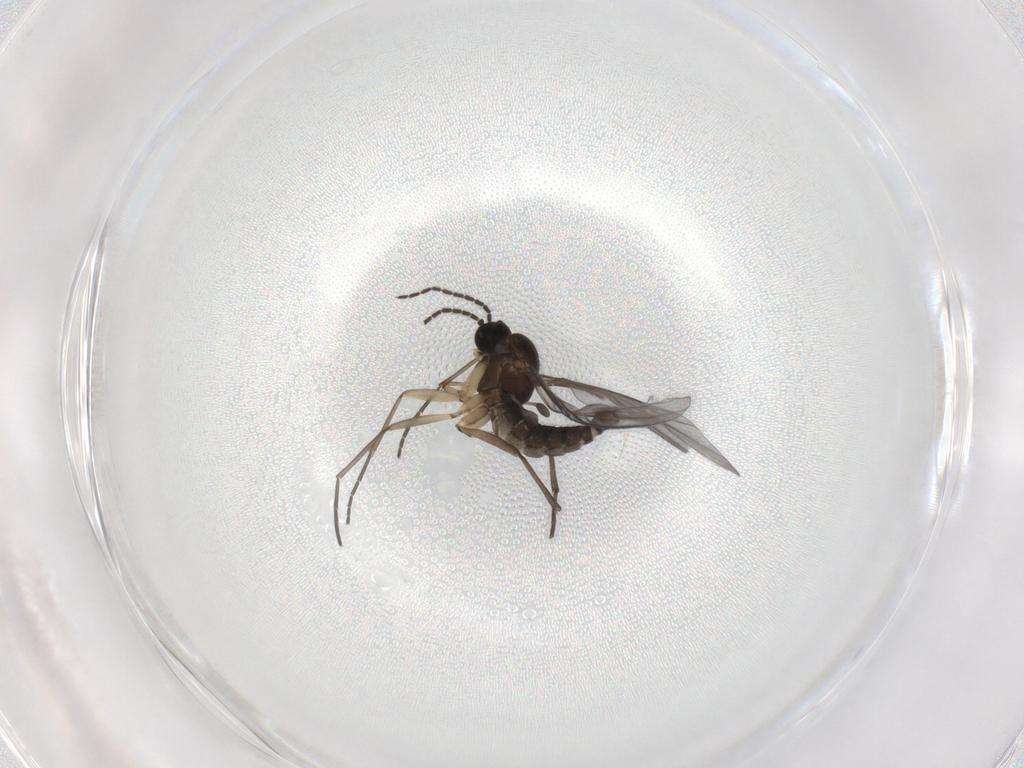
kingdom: Animalia
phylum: Arthropoda
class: Insecta
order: Diptera
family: Sciaridae
